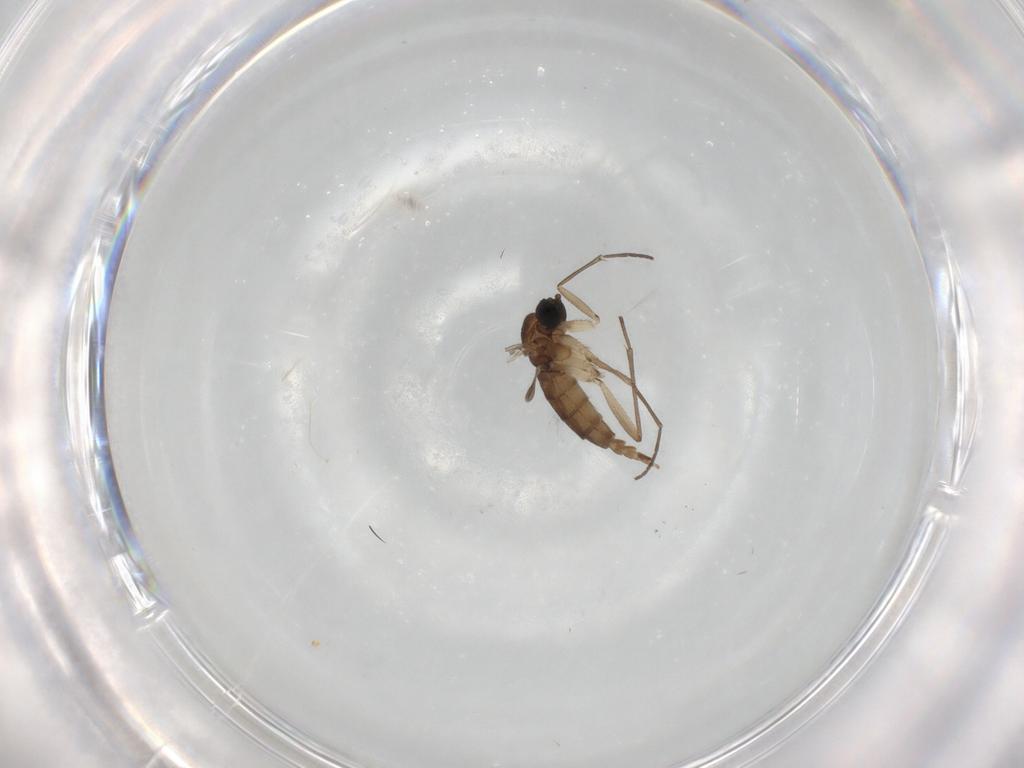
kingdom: Animalia
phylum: Arthropoda
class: Insecta
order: Diptera
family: Sciaridae
